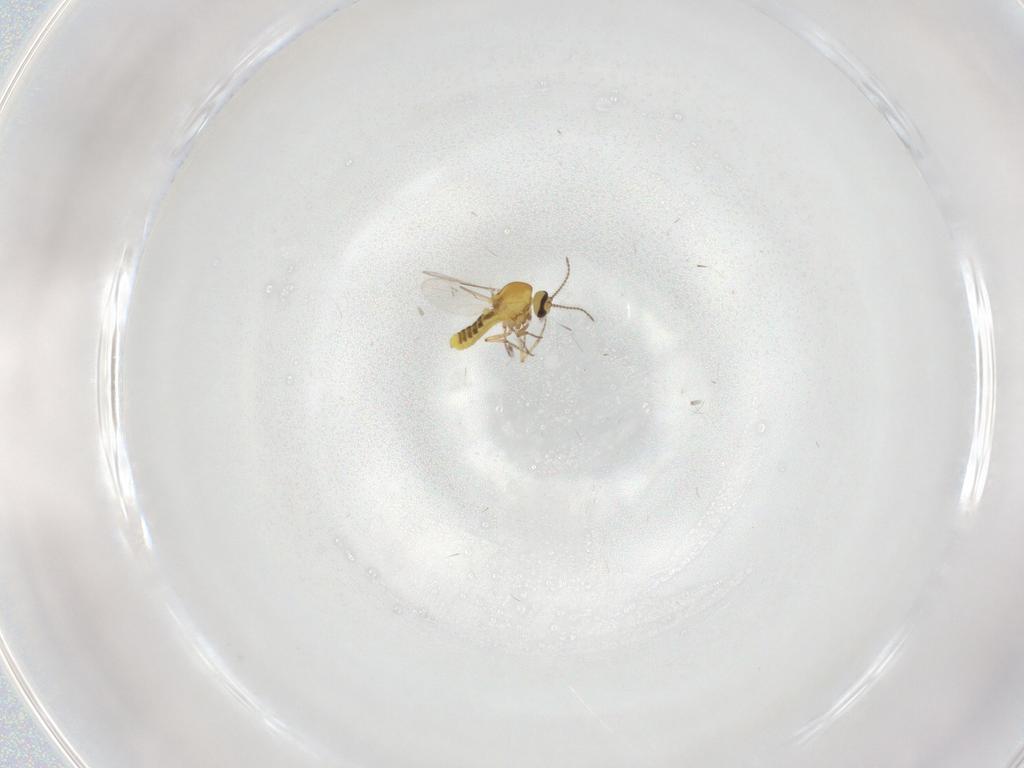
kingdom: Animalia
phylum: Arthropoda
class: Insecta
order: Diptera
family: Ceratopogonidae
